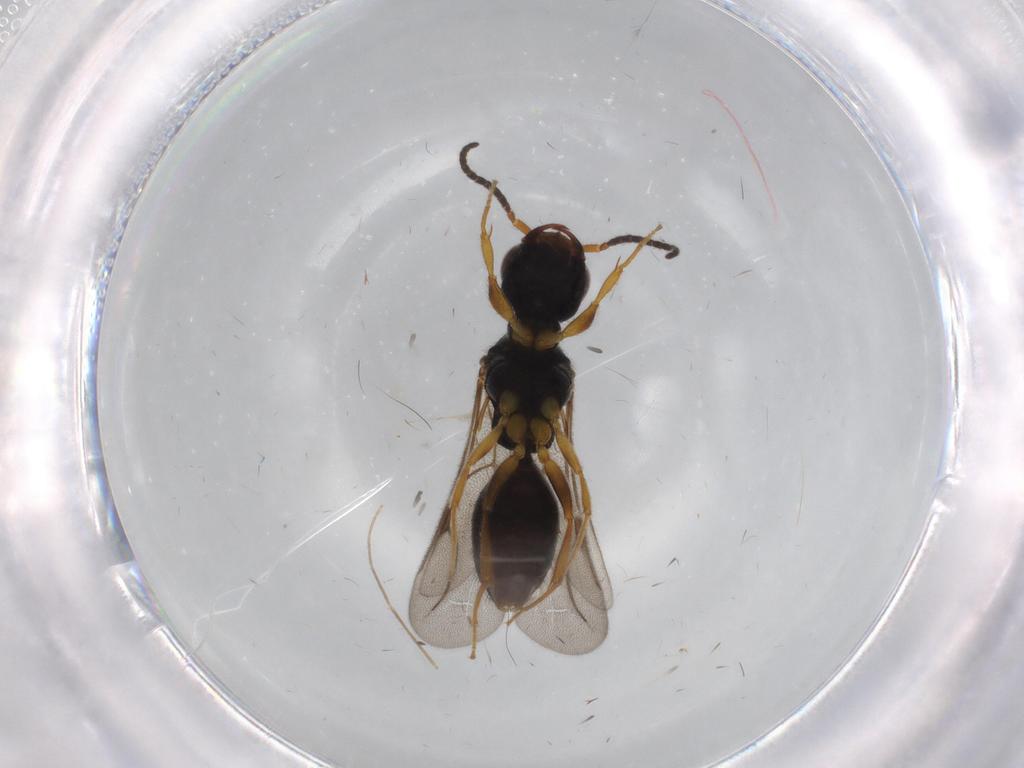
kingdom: Animalia
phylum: Arthropoda
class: Insecta
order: Hymenoptera
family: Bethylidae
